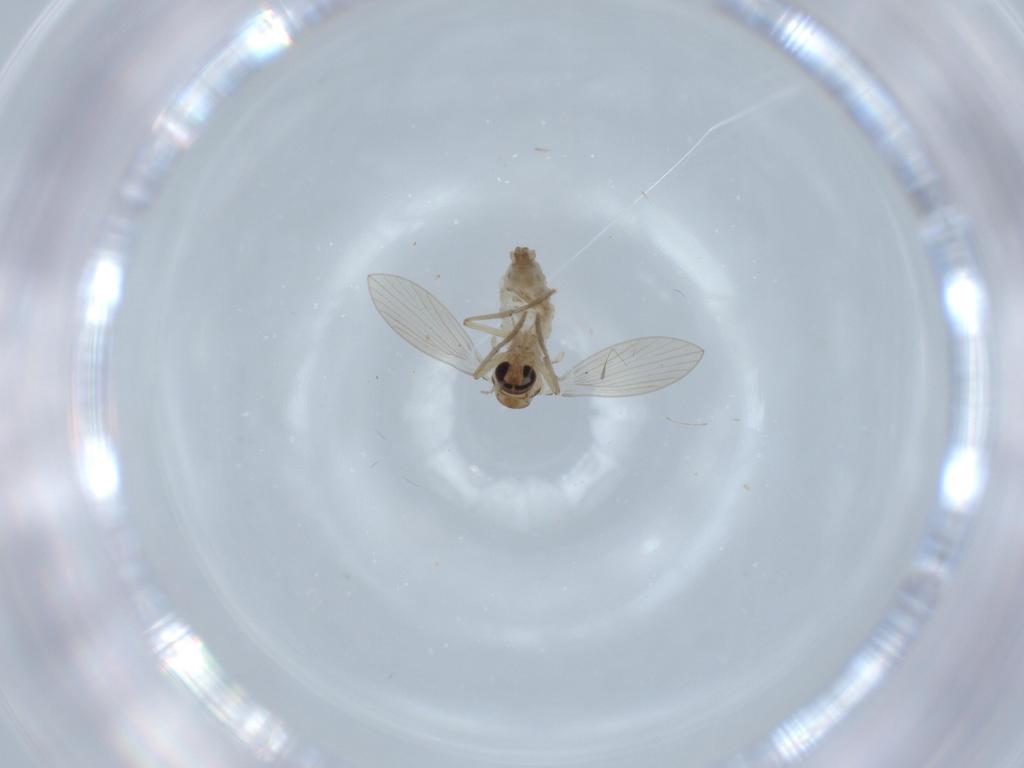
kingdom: Animalia
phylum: Arthropoda
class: Insecta
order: Diptera
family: Psychodidae
